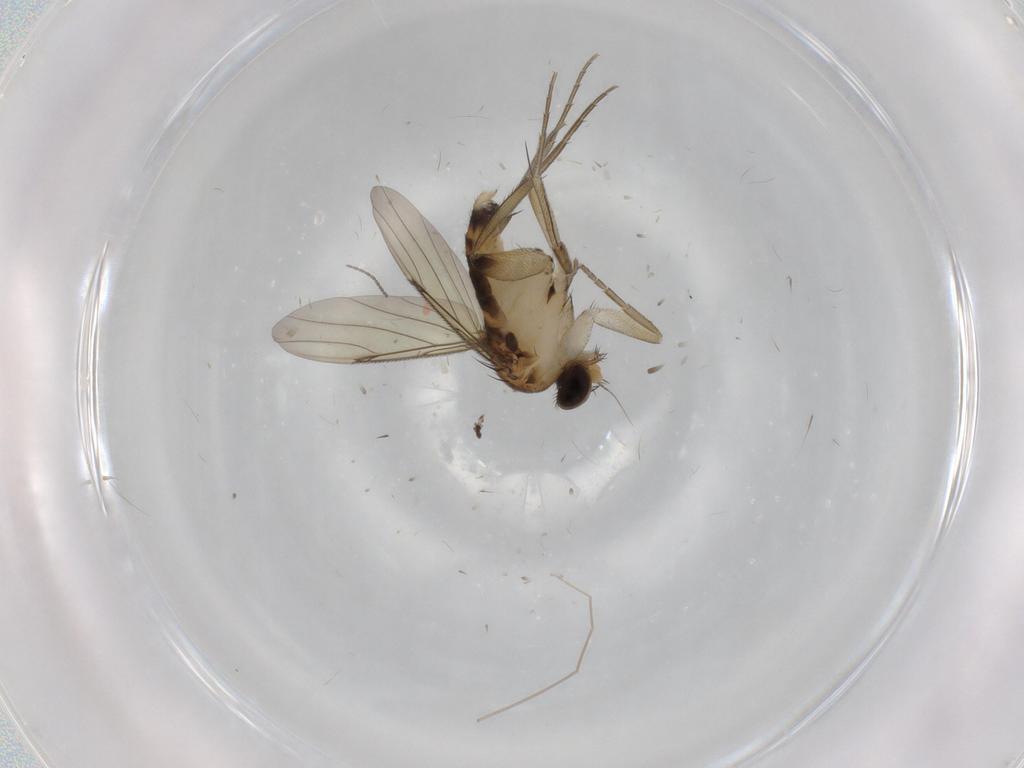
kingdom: Animalia
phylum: Arthropoda
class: Insecta
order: Diptera
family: Phoridae
